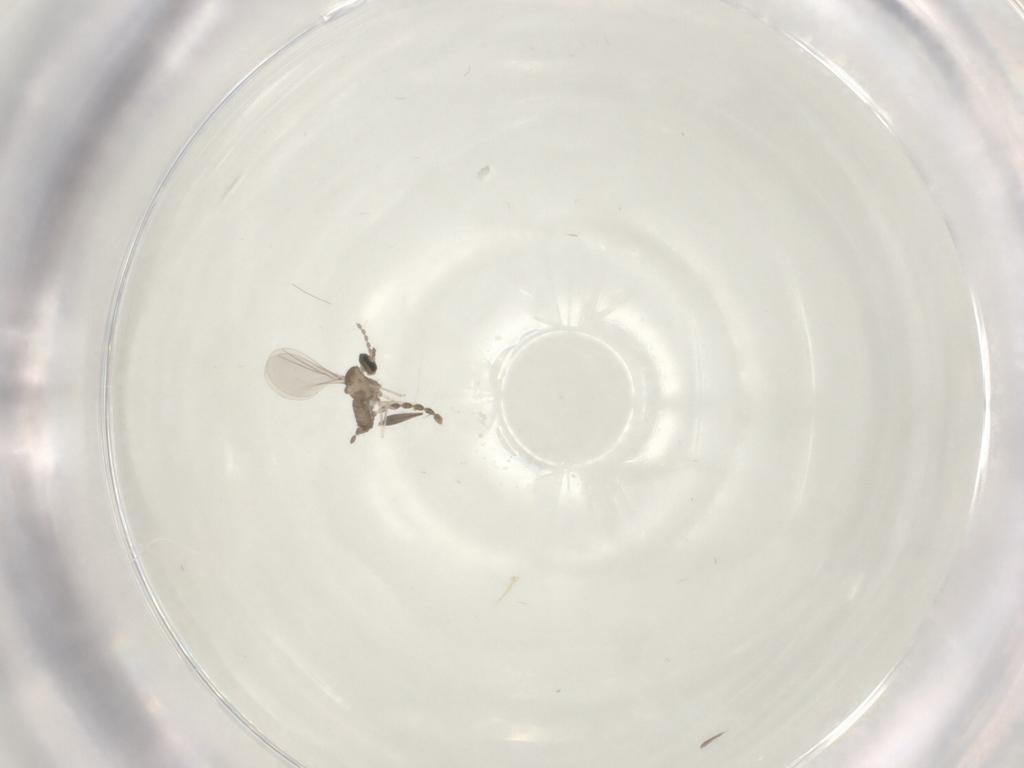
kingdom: Animalia
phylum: Arthropoda
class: Insecta
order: Diptera
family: Cecidomyiidae
